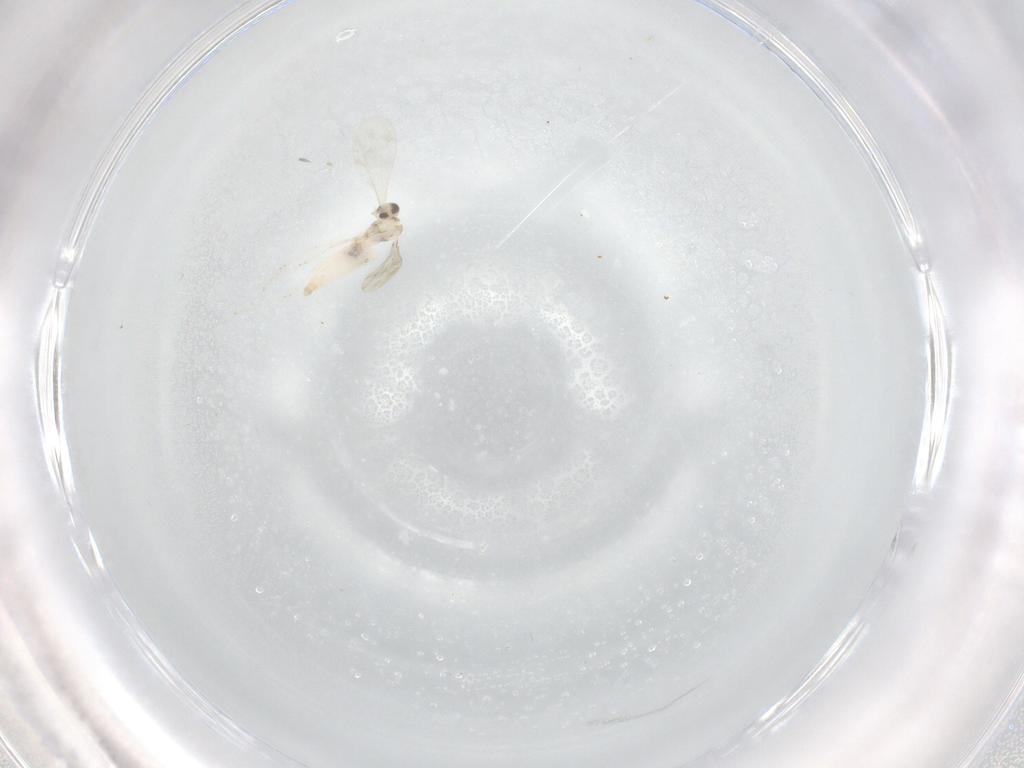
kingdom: Animalia
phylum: Arthropoda
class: Insecta
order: Diptera
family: Cecidomyiidae
